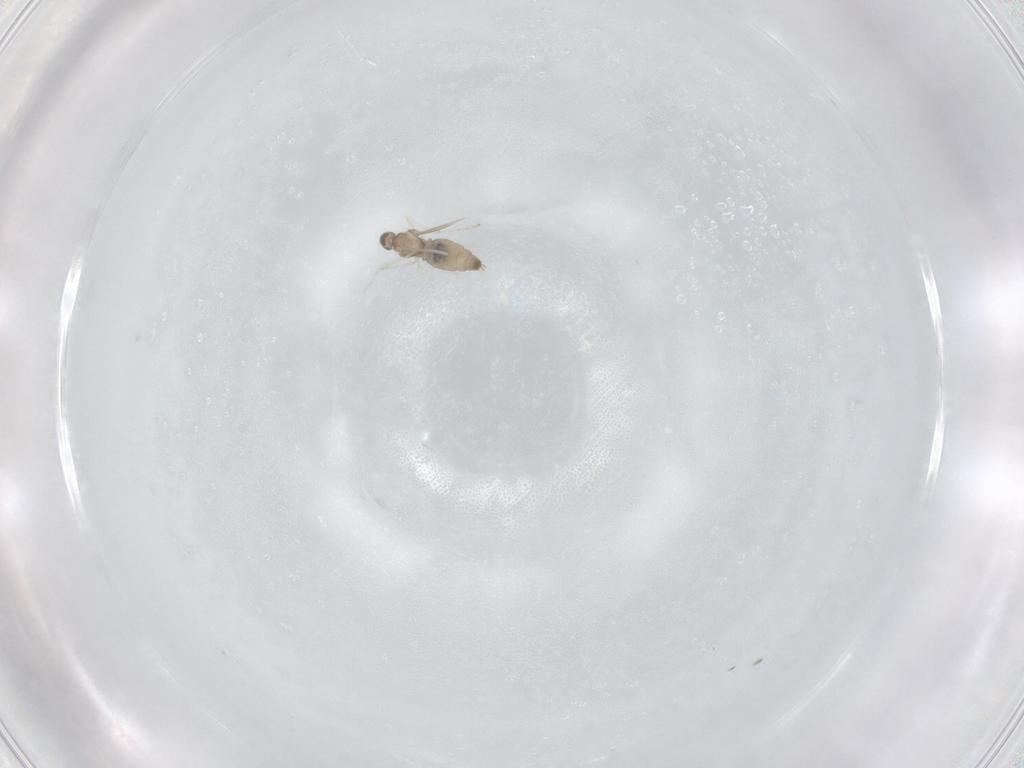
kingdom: Animalia
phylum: Arthropoda
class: Insecta
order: Diptera
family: Cecidomyiidae
